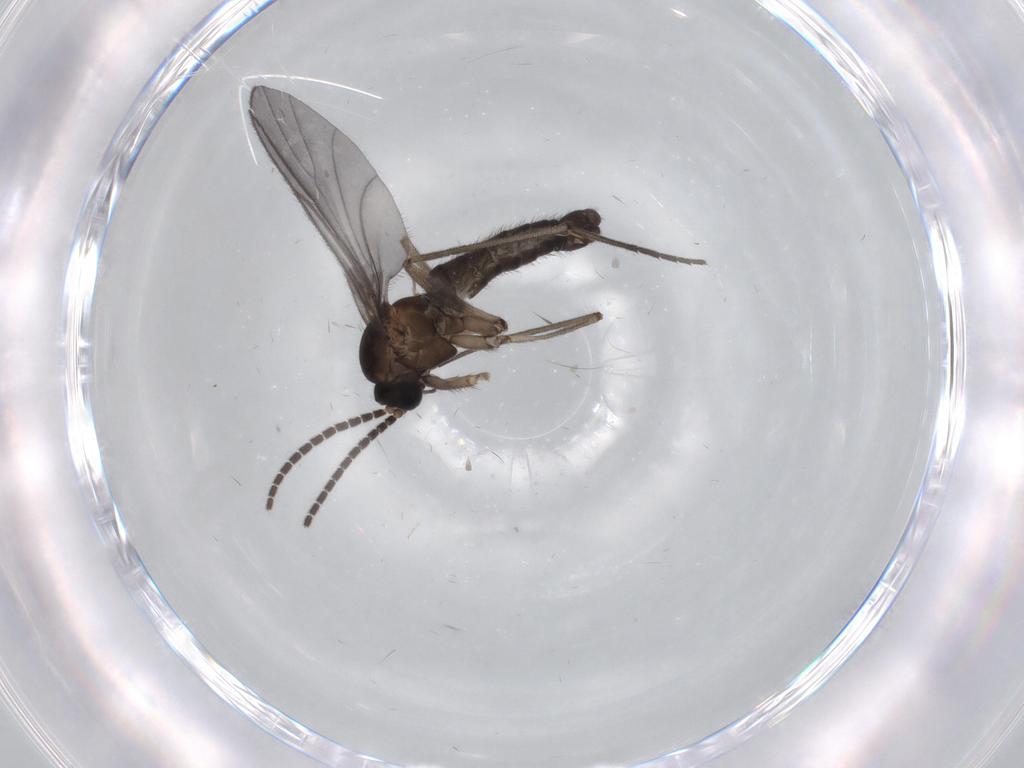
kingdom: Animalia
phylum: Arthropoda
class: Insecta
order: Diptera
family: Sciaridae
